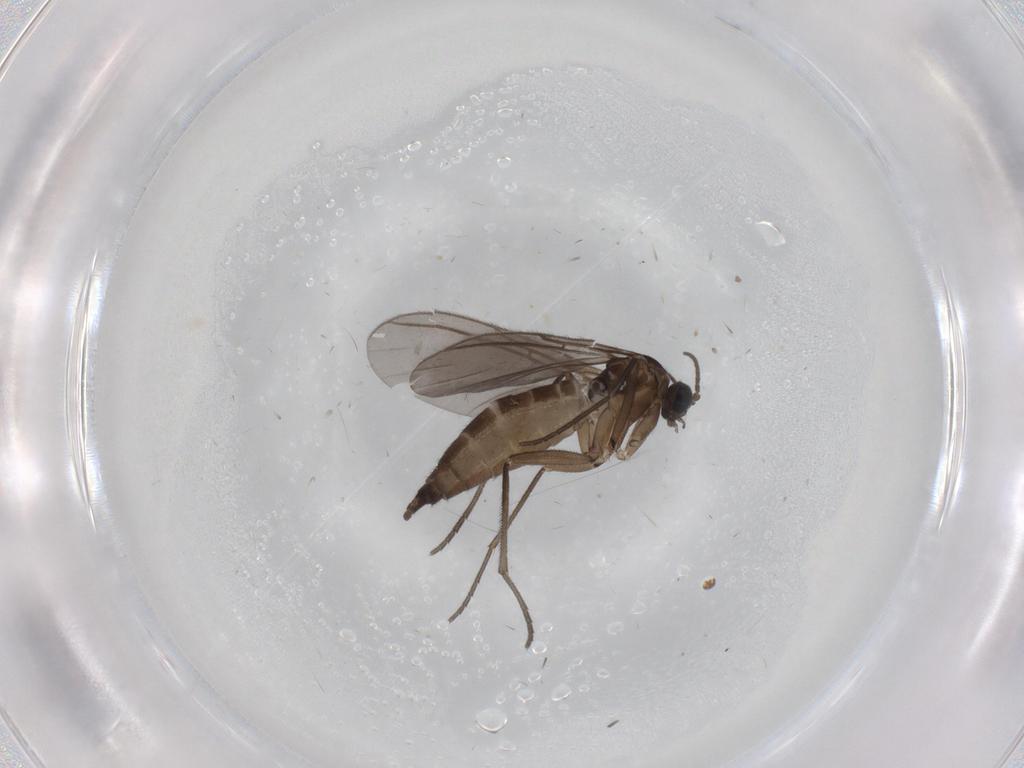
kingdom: Animalia
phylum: Arthropoda
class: Insecta
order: Diptera
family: Sciaridae
